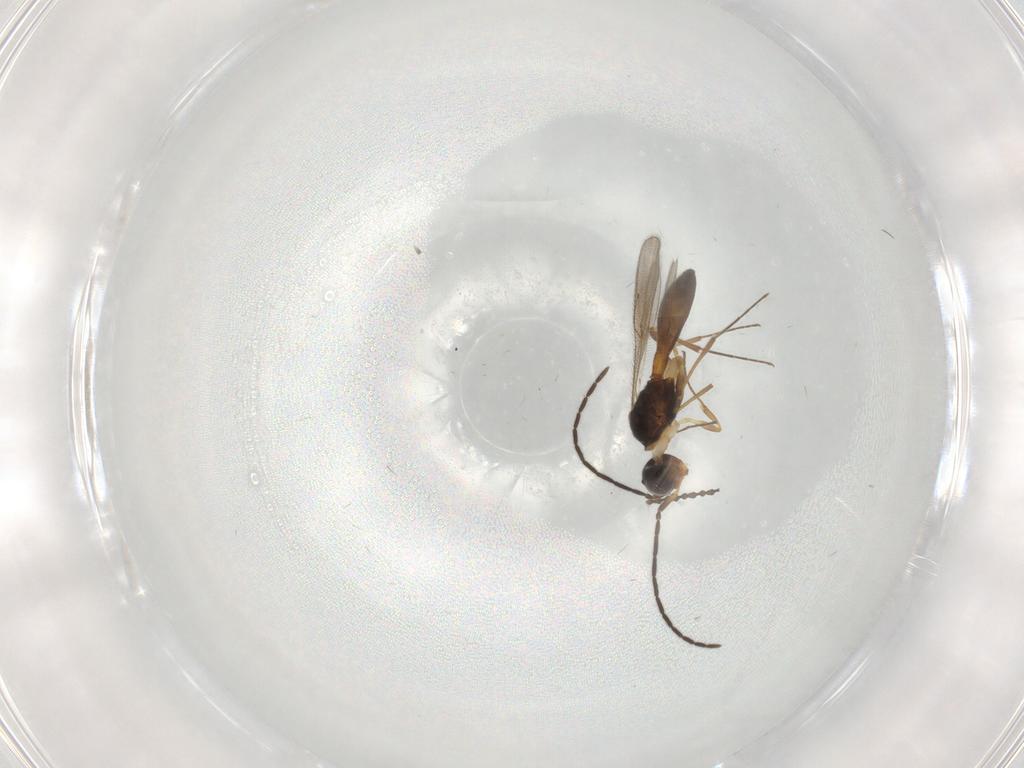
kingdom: Animalia
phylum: Arthropoda
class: Insecta
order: Hymenoptera
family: Scelionidae
